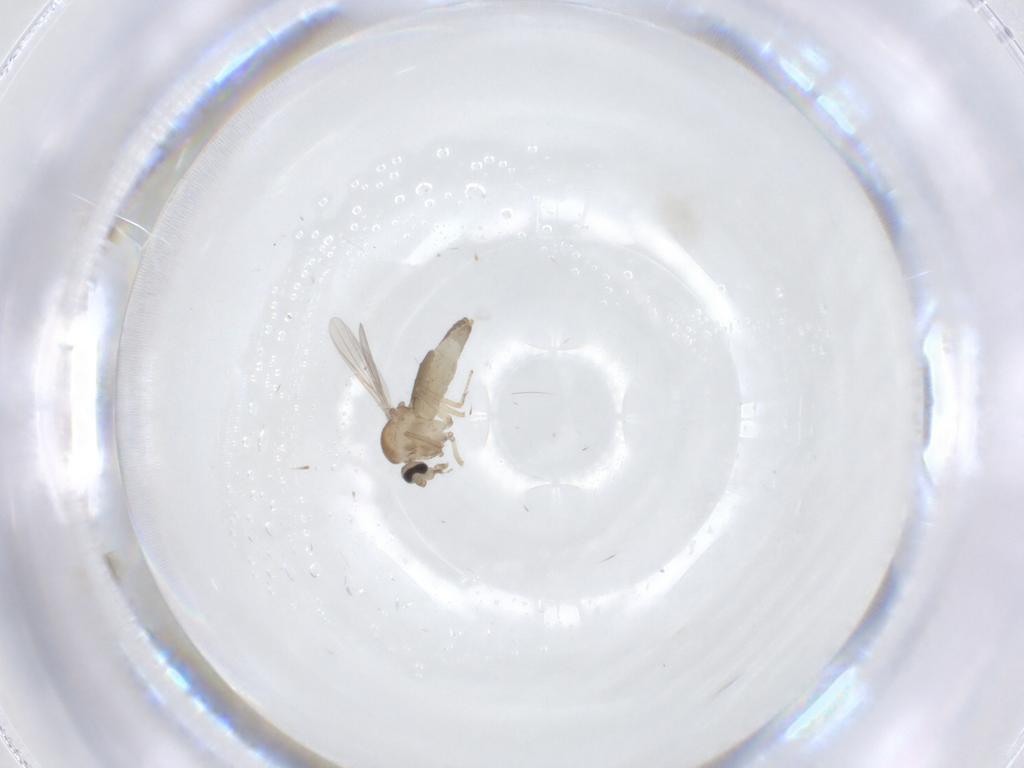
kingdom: Animalia
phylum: Arthropoda
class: Insecta
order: Diptera
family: Ceratopogonidae
